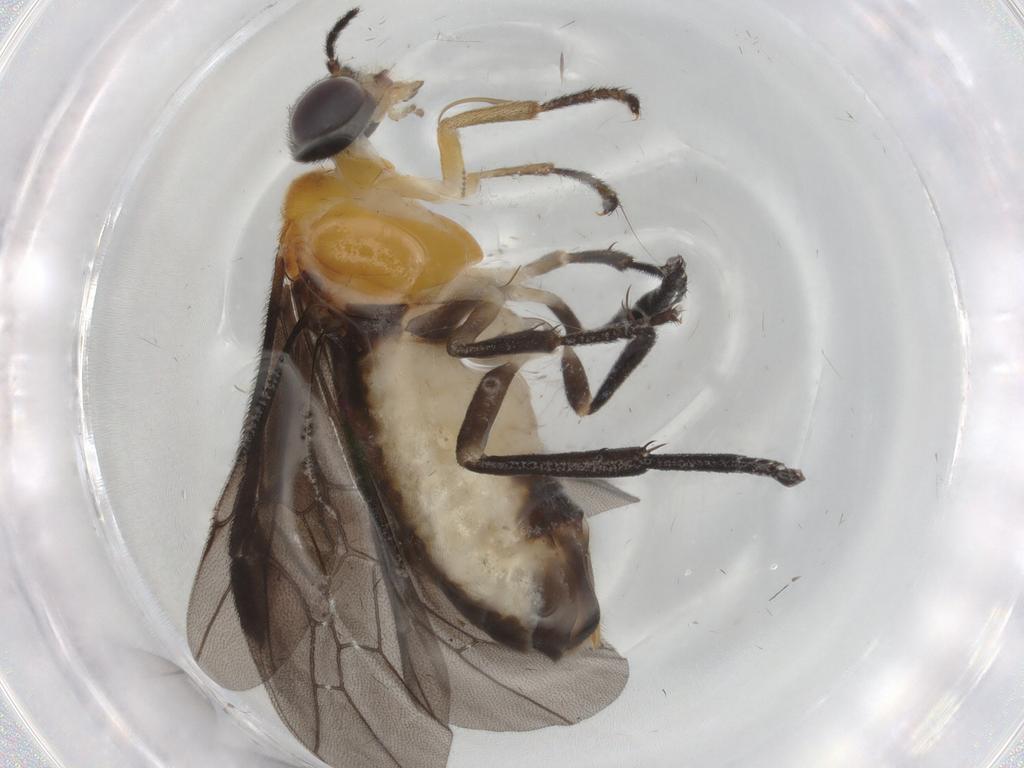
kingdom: Animalia
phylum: Arthropoda
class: Insecta
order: Hymenoptera
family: Pergidae
